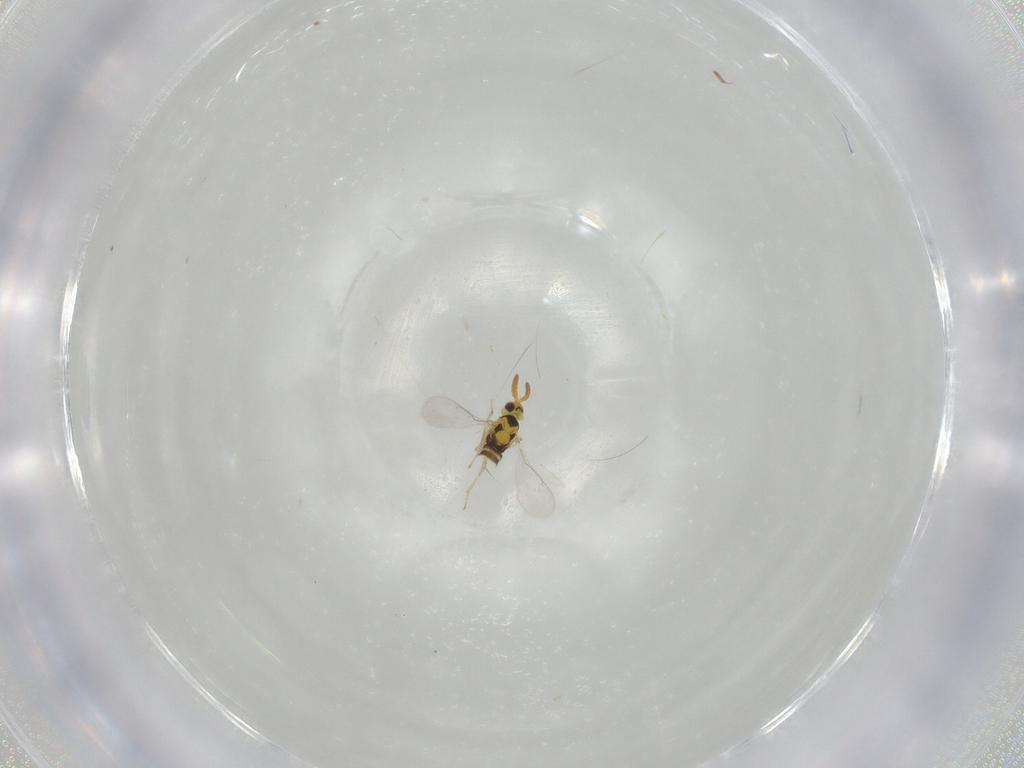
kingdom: Animalia
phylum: Arthropoda
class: Insecta
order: Hymenoptera
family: Aphelinidae
